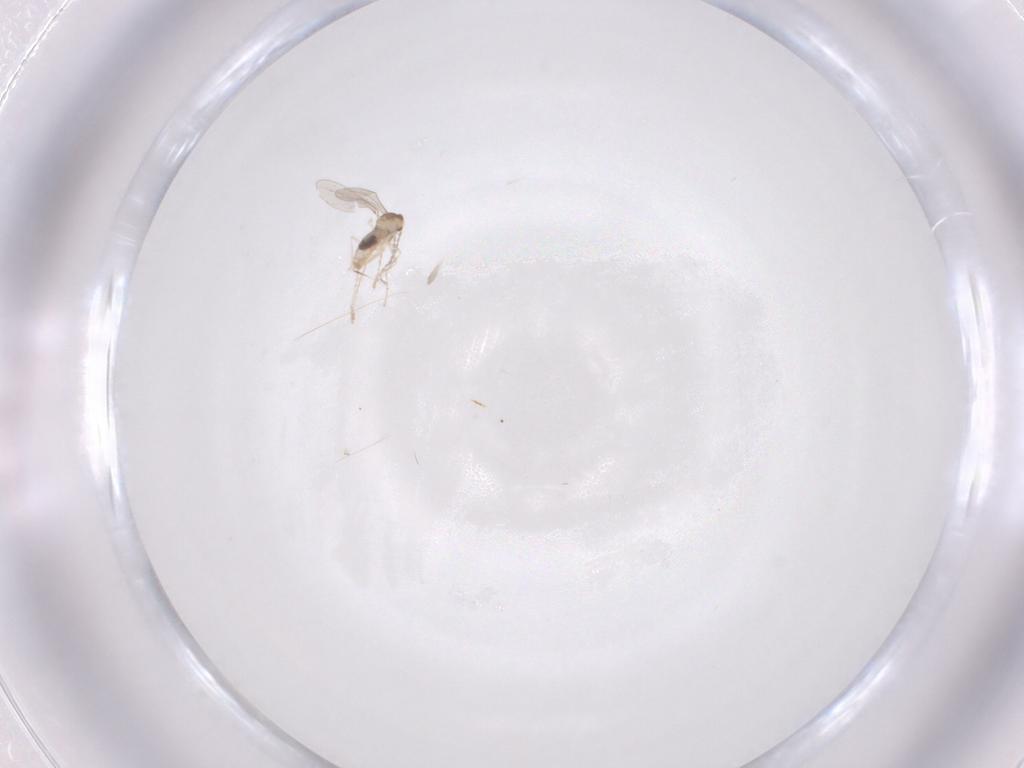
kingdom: Animalia
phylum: Arthropoda
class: Insecta
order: Diptera
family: Cecidomyiidae
